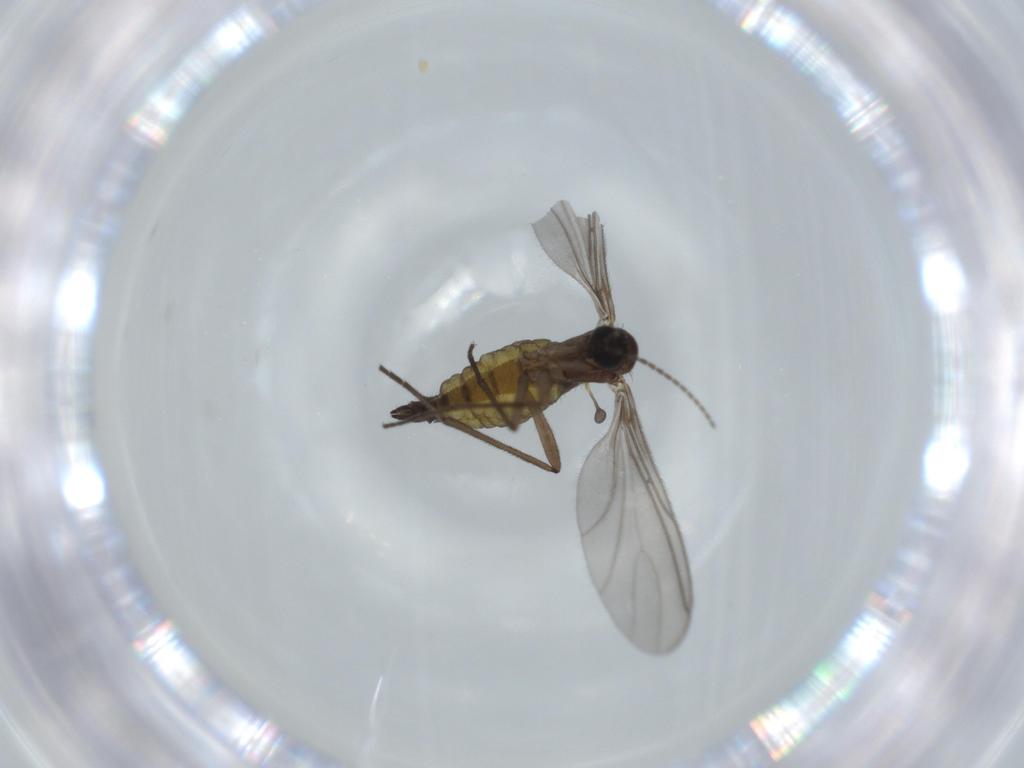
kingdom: Animalia
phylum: Arthropoda
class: Insecta
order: Diptera
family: Sciaridae
